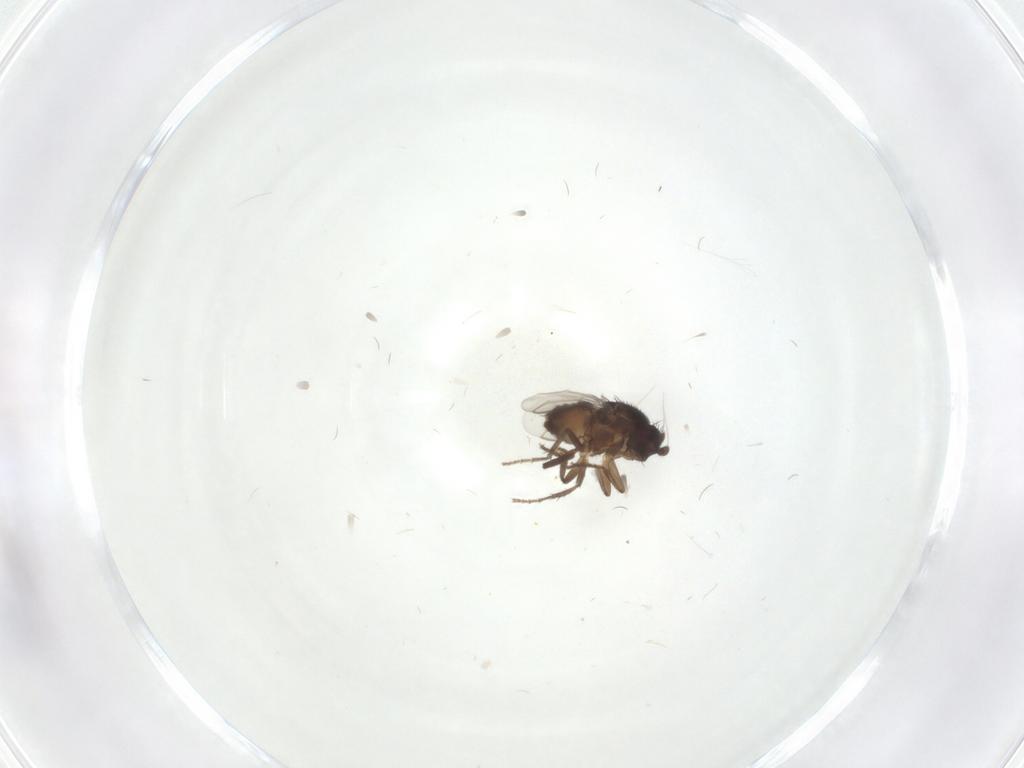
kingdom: Animalia
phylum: Arthropoda
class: Insecta
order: Diptera
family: Sphaeroceridae
